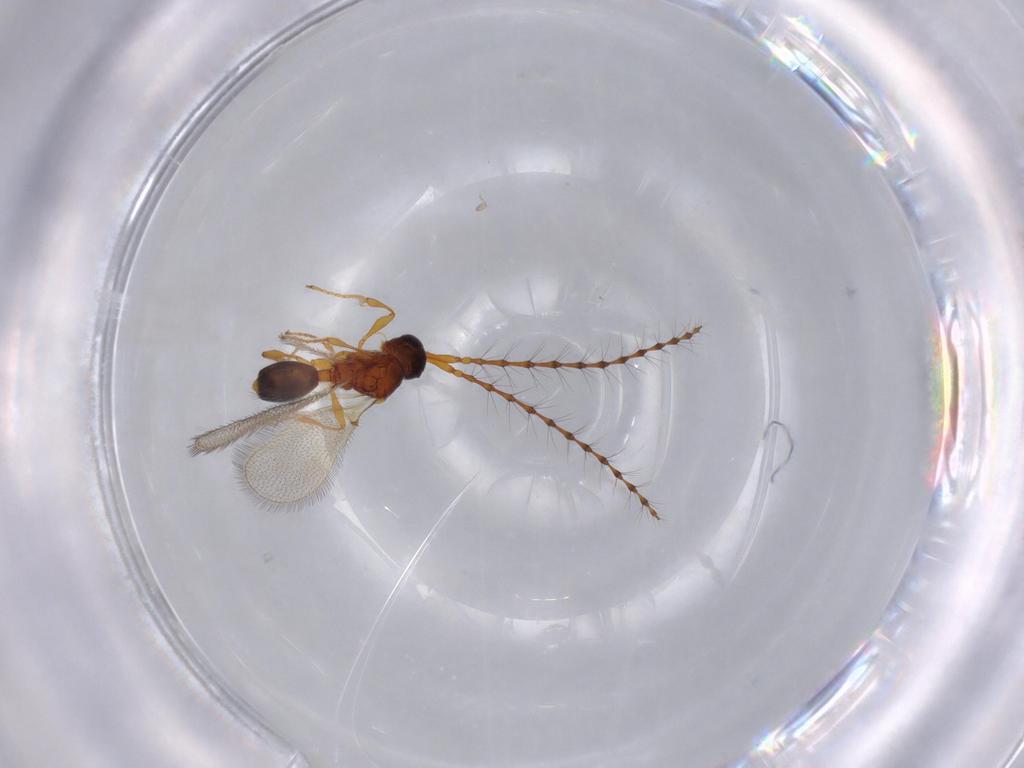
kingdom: Animalia
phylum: Arthropoda
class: Insecta
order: Hymenoptera
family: Diapriidae
